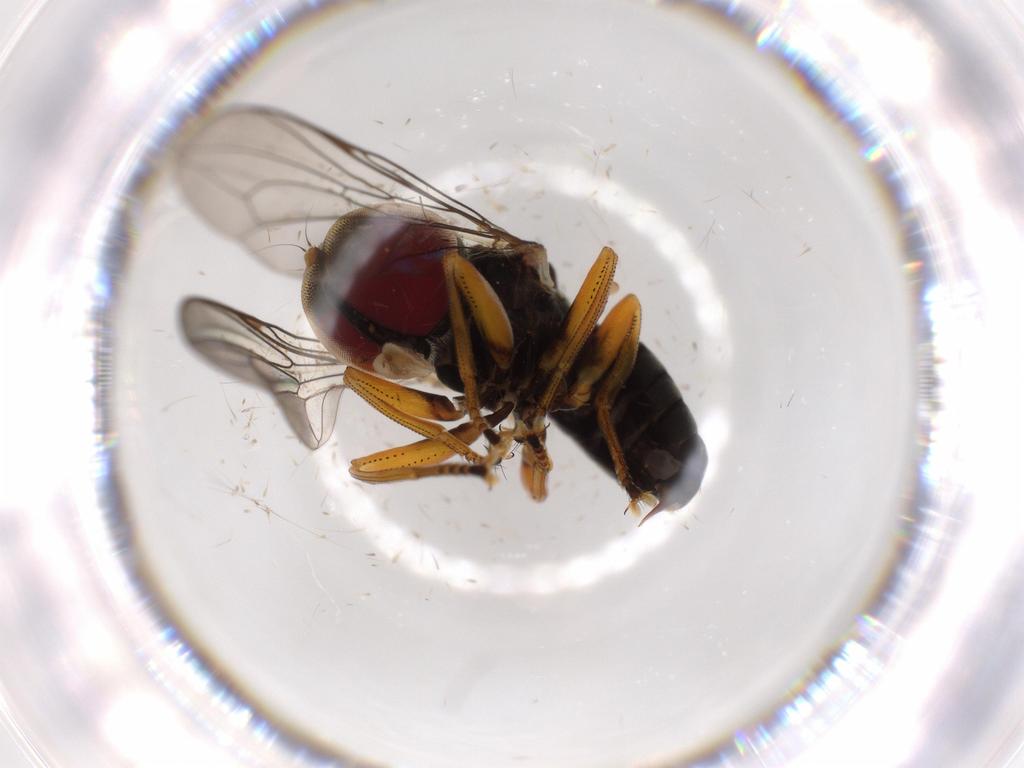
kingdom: Animalia
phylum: Arthropoda
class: Insecta
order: Diptera
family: Pipunculidae
